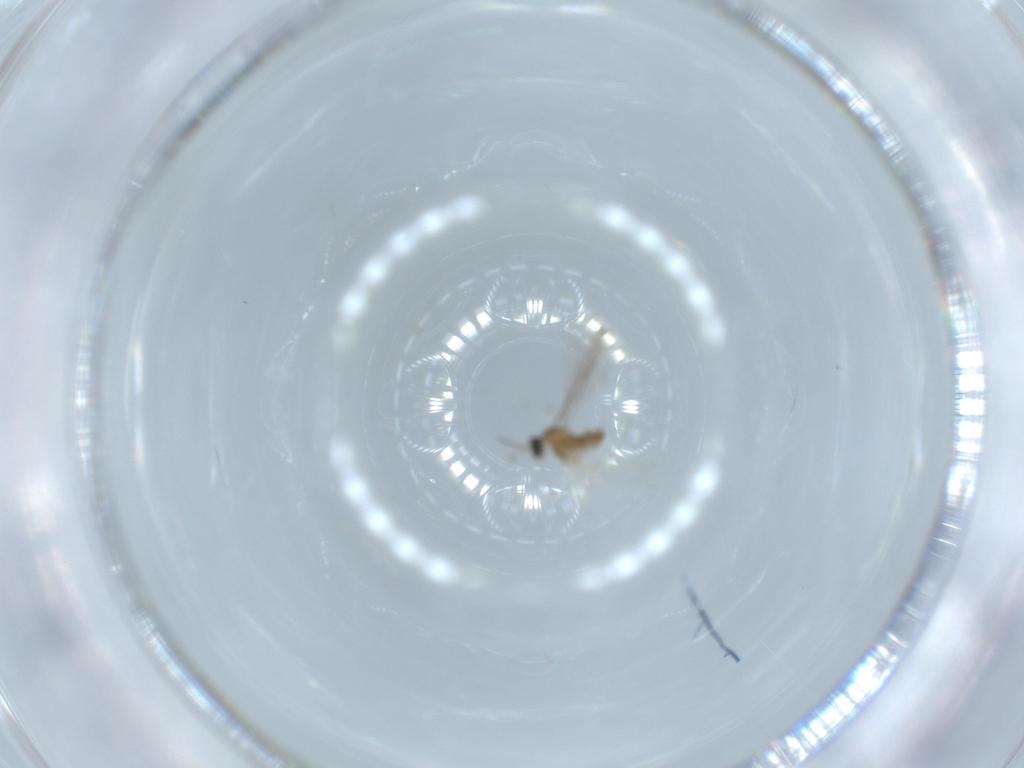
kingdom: Animalia
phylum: Arthropoda
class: Insecta
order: Diptera
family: Cecidomyiidae
